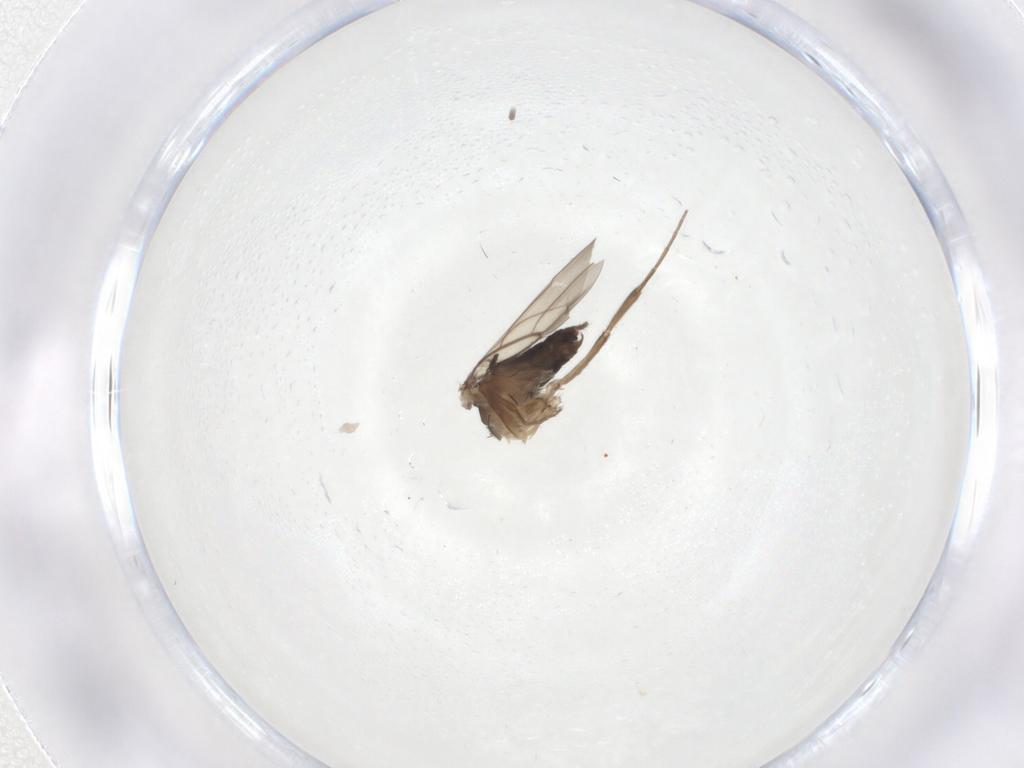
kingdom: Animalia
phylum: Arthropoda
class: Insecta
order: Diptera
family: Phoridae
